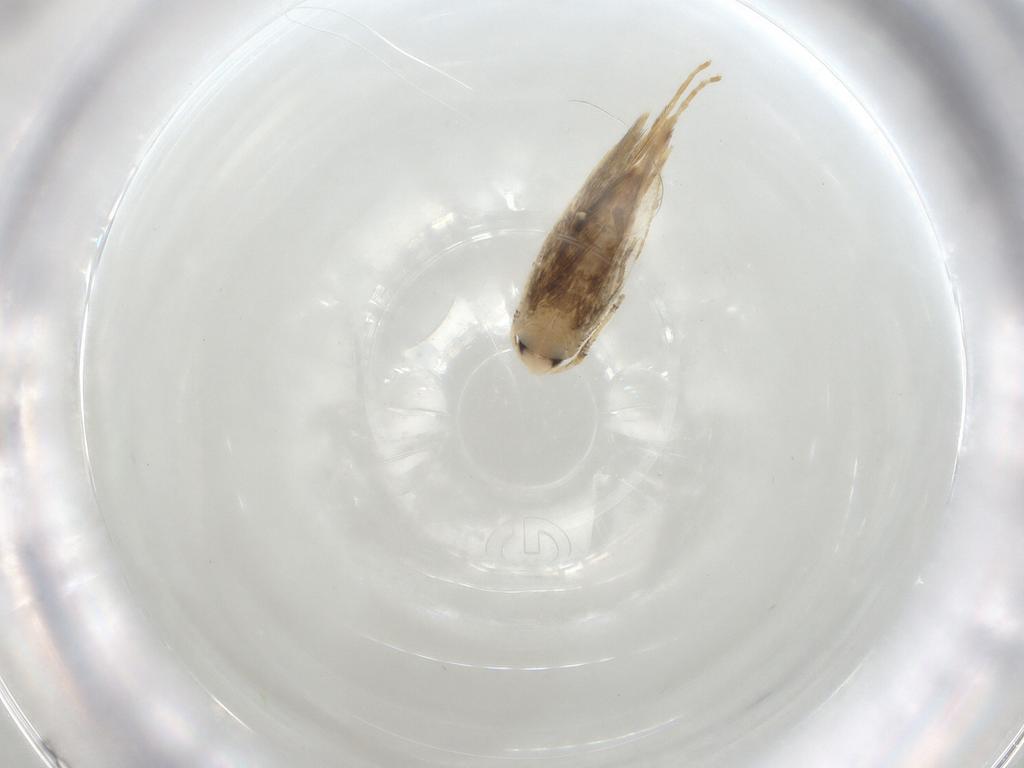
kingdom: Animalia
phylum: Arthropoda
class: Insecta
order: Lepidoptera
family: Tineidae
